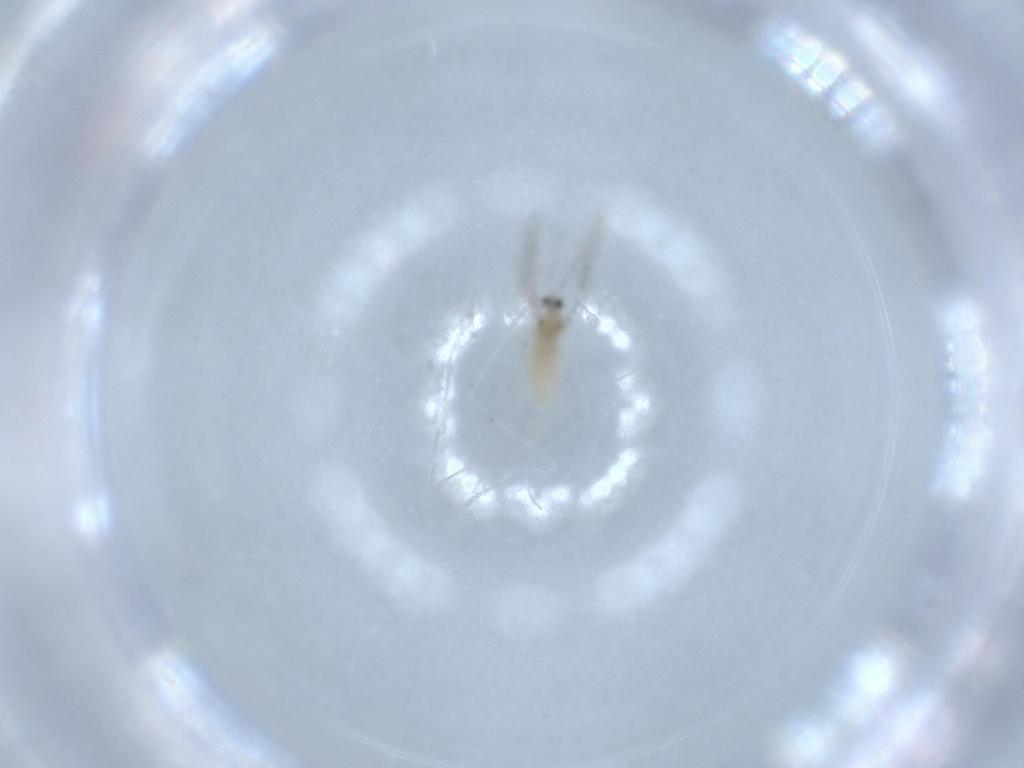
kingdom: Animalia
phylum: Arthropoda
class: Insecta
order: Diptera
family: Cecidomyiidae
